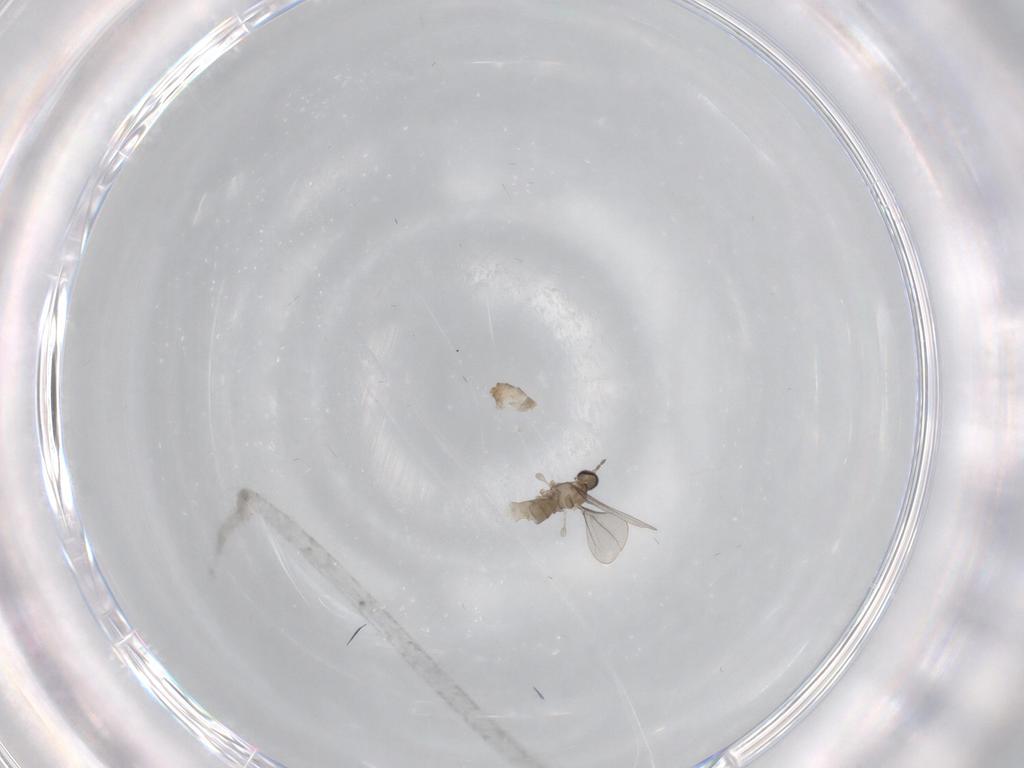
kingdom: Animalia
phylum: Arthropoda
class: Insecta
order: Diptera
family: Cecidomyiidae
